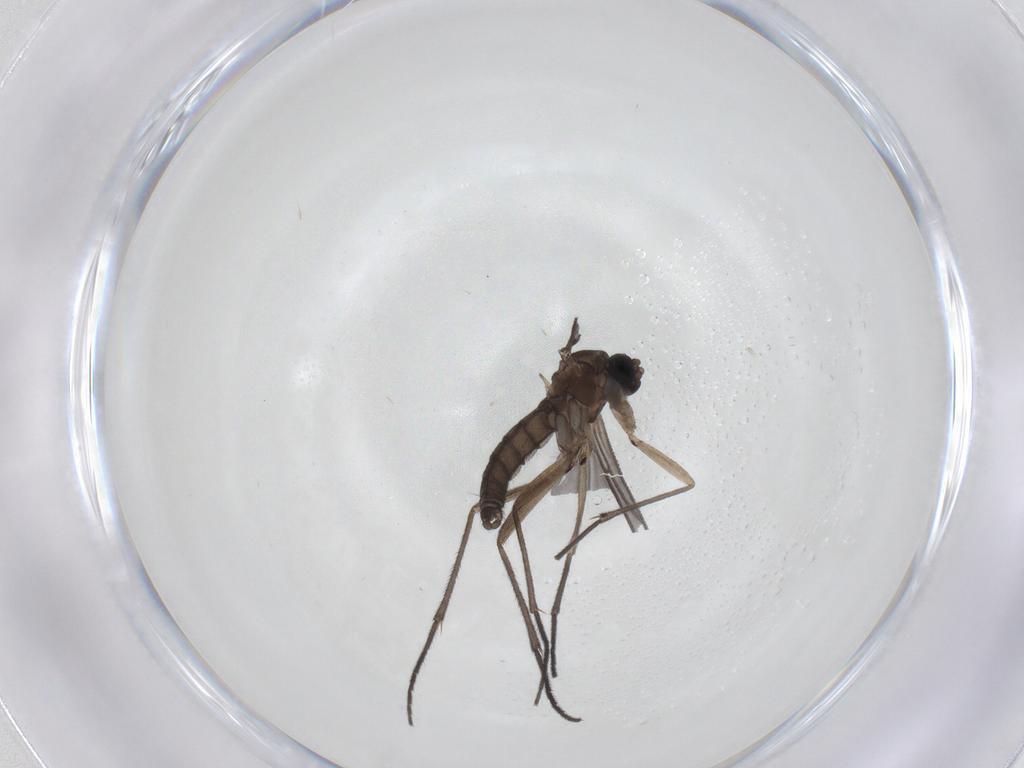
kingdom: Animalia
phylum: Arthropoda
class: Insecta
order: Diptera
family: Sciaridae
